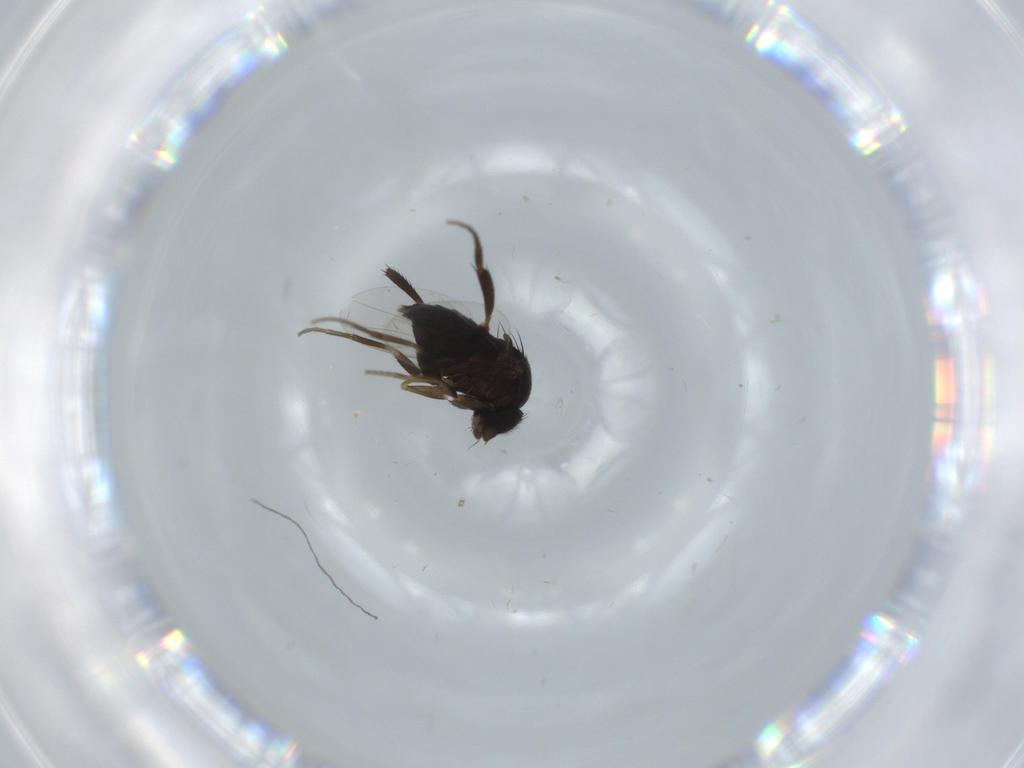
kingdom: Animalia
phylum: Arthropoda
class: Insecta
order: Diptera
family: Phoridae
